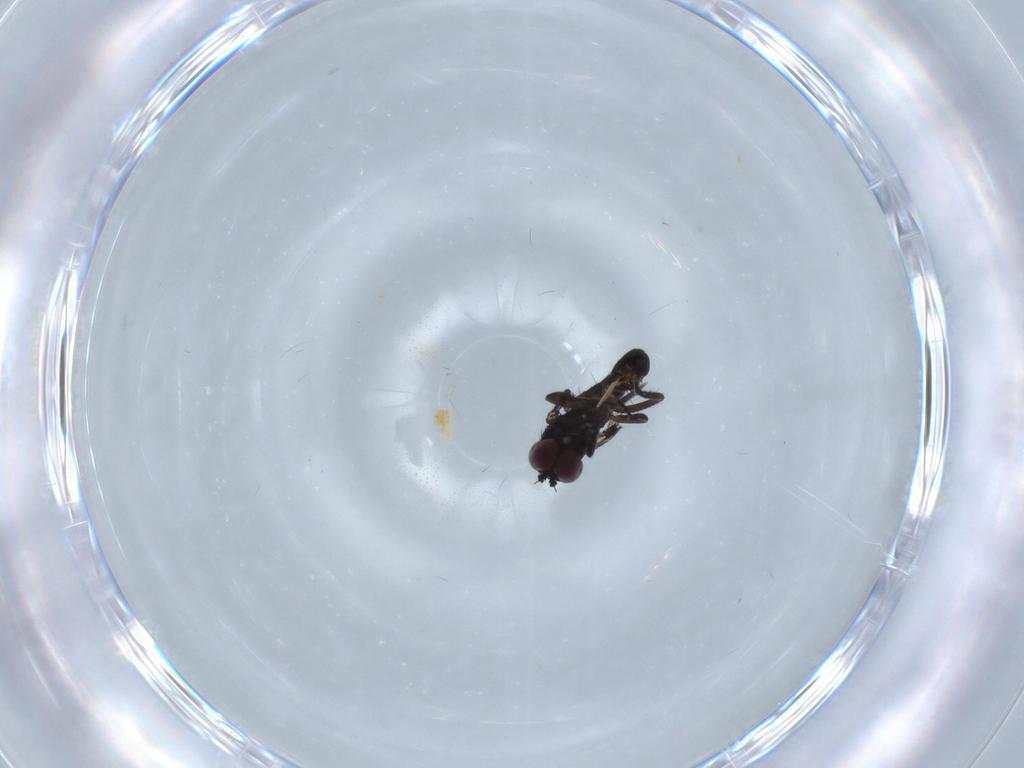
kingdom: Animalia
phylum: Arthropoda
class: Insecta
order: Diptera
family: Dolichopodidae
